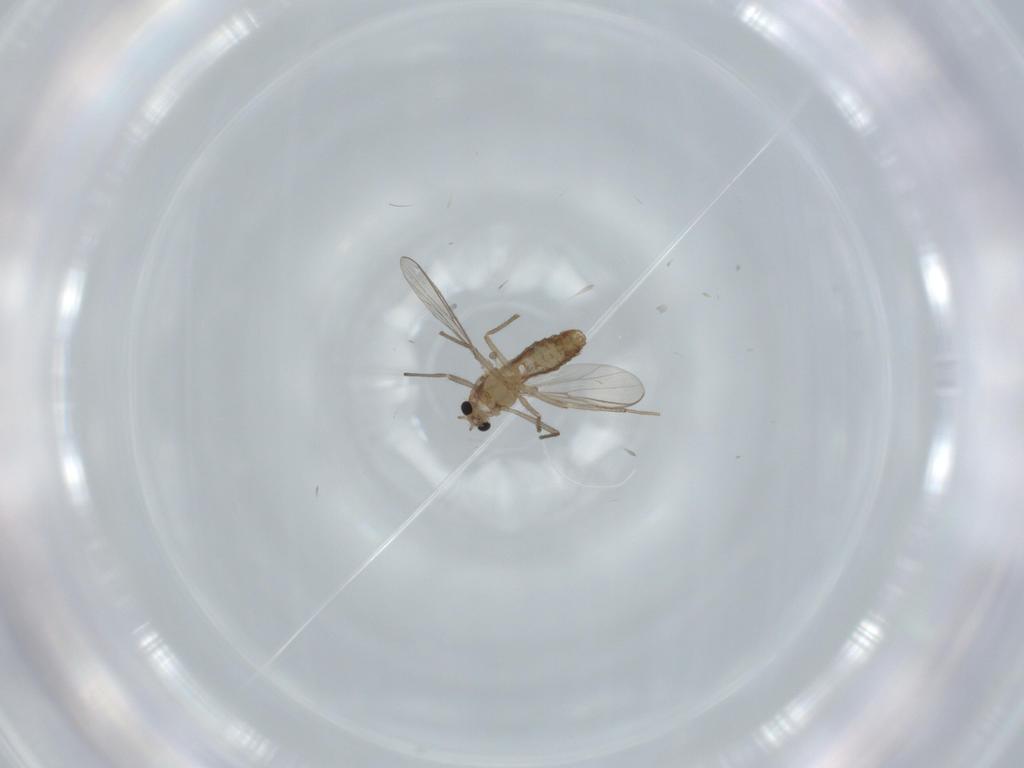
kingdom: Animalia
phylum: Arthropoda
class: Insecta
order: Diptera
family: Chironomidae
